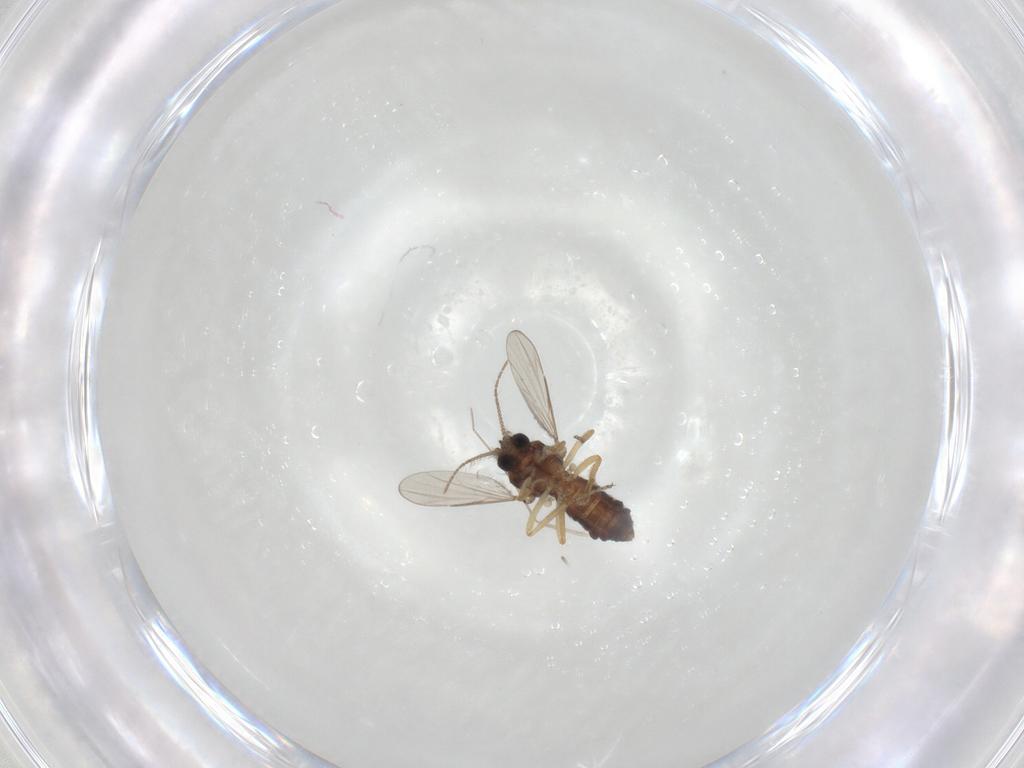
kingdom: Animalia
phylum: Arthropoda
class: Insecta
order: Diptera
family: Ceratopogonidae
